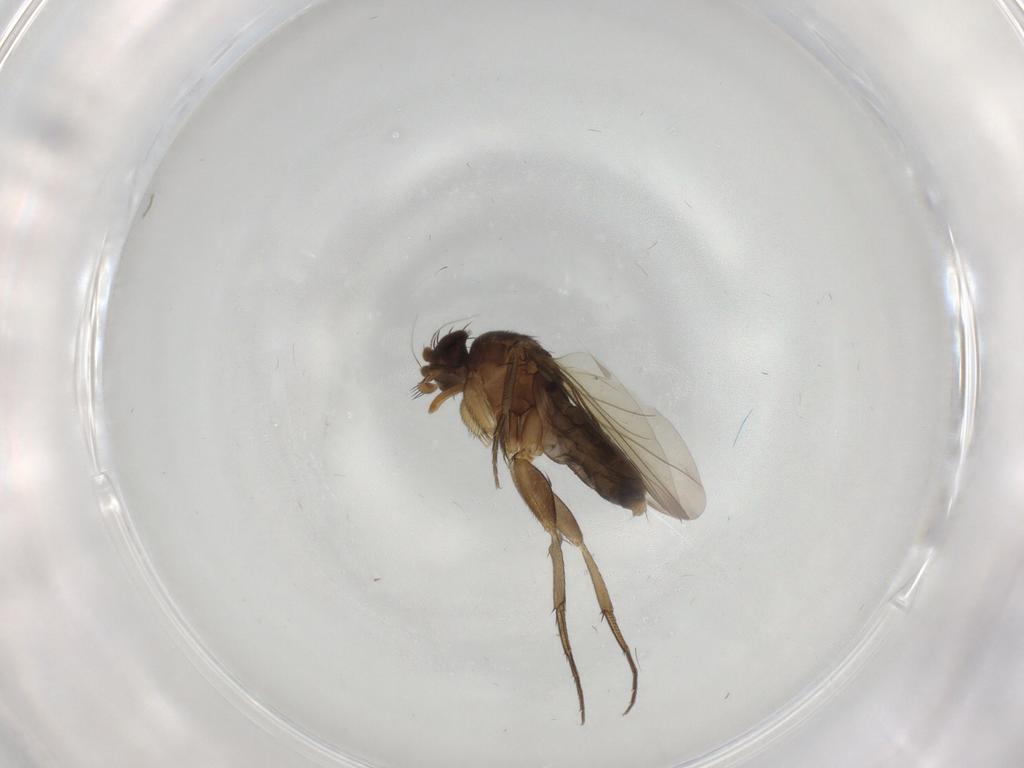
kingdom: Animalia
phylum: Arthropoda
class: Insecta
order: Diptera
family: Phoridae
